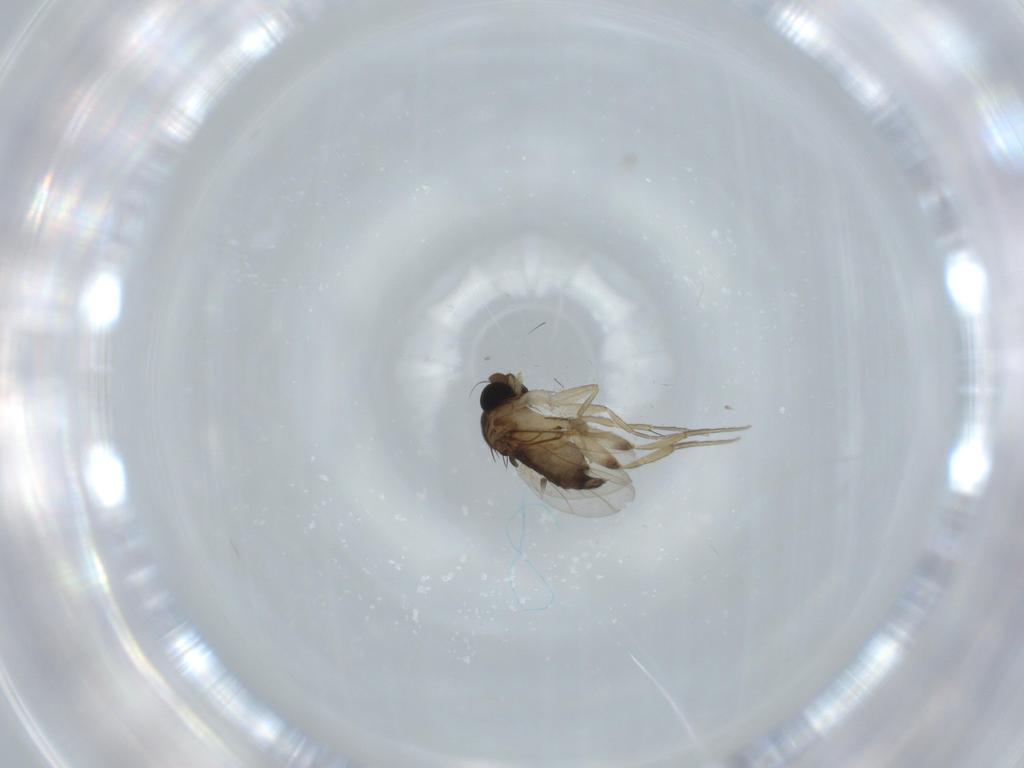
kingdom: Animalia
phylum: Arthropoda
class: Insecta
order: Diptera
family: Phoridae
